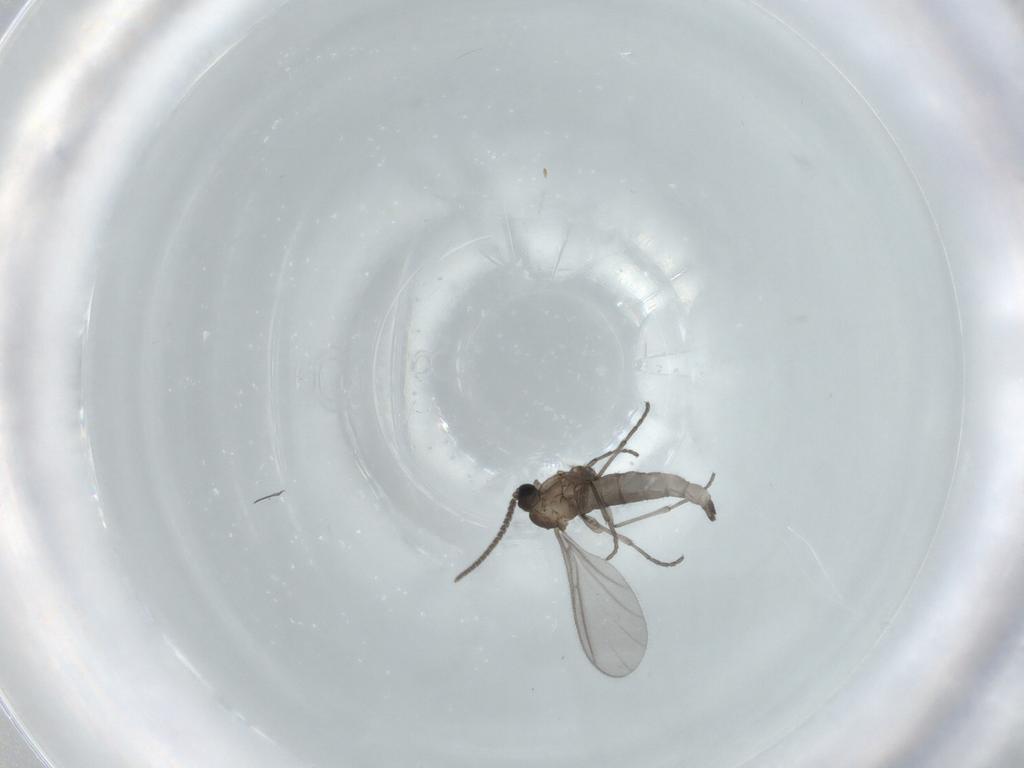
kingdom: Animalia
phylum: Arthropoda
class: Insecta
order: Diptera
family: Sciaridae
